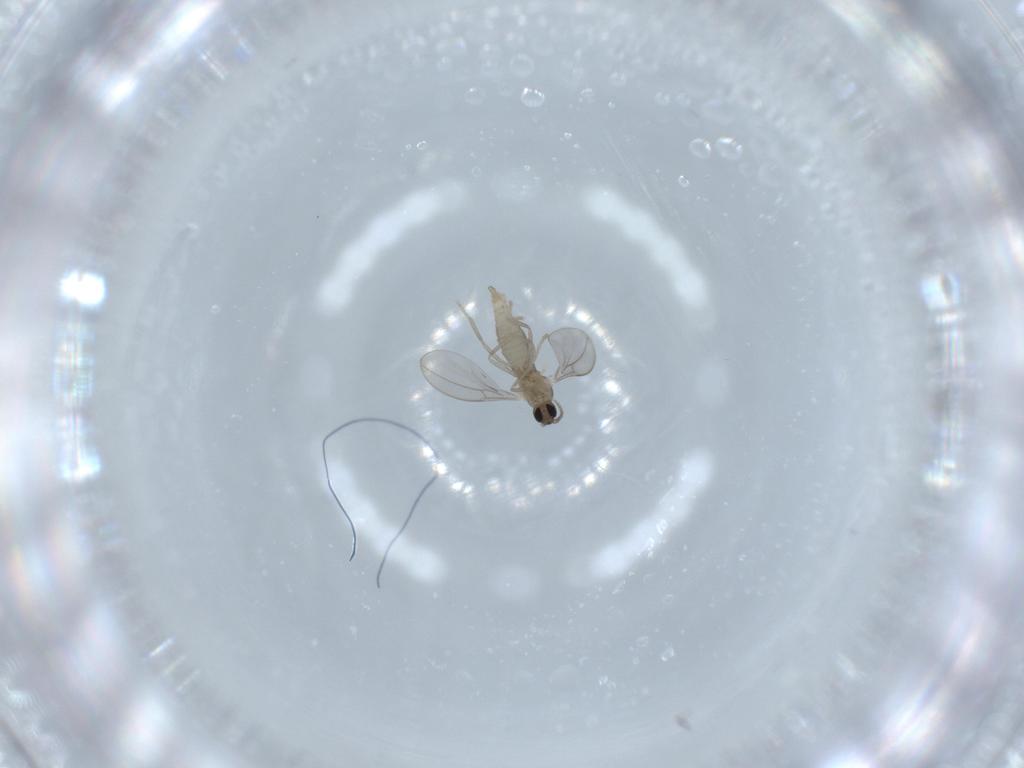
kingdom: Animalia
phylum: Arthropoda
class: Insecta
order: Diptera
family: Cecidomyiidae
